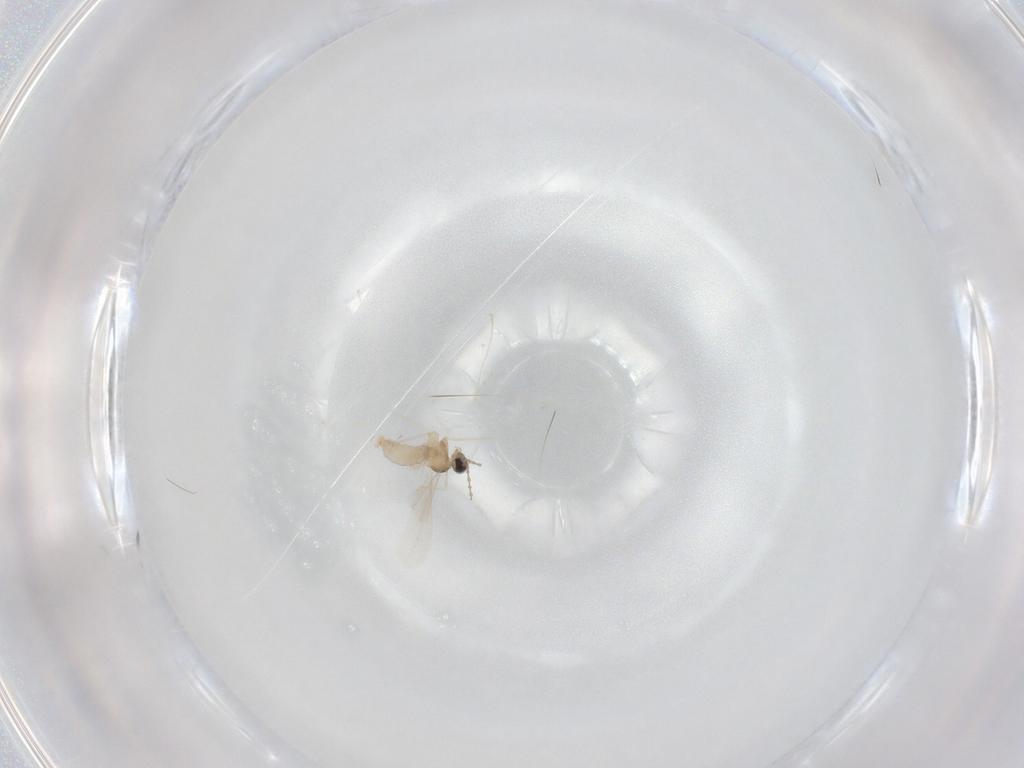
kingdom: Animalia
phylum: Arthropoda
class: Insecta
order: Diptera
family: Cecidomyiidae
